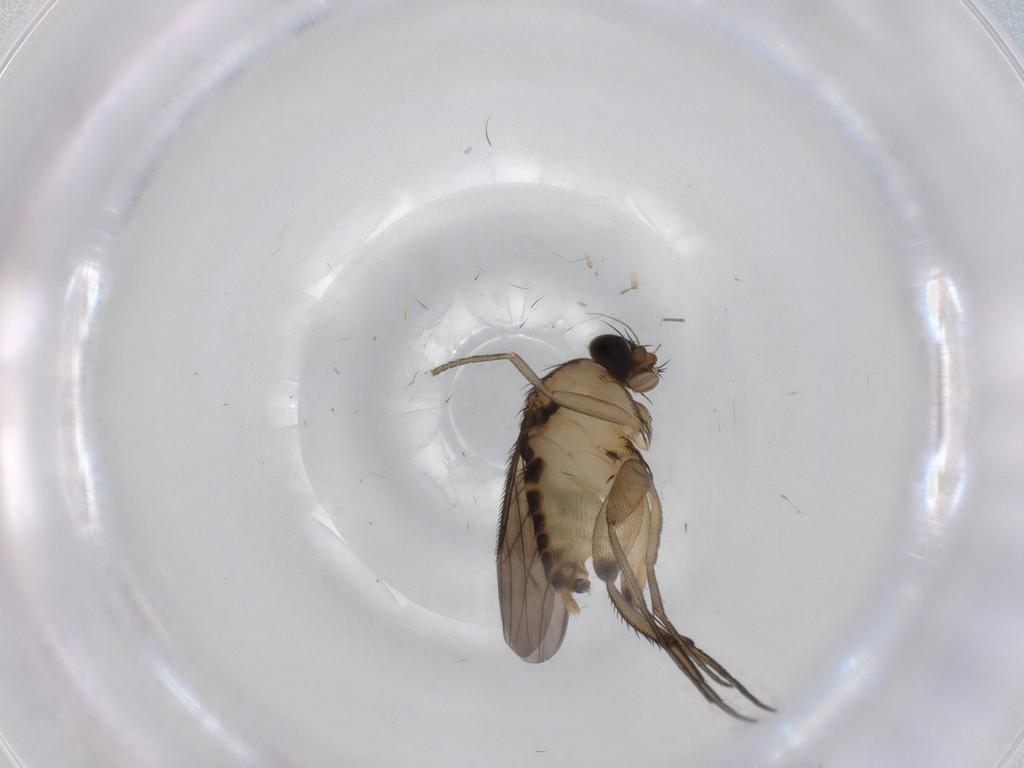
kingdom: Animalia
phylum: Arthropoda
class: Insecta
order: Diptera
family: Phoridae
